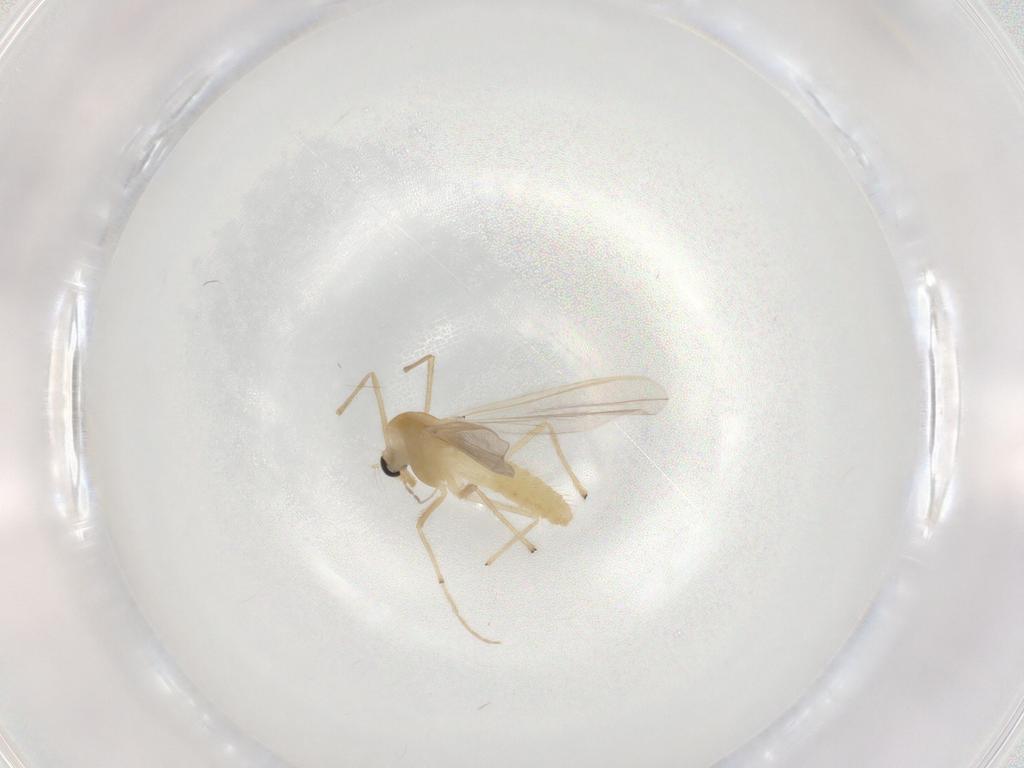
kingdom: Animalia
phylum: Arthropoda
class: Insecta
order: Diptera
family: Chironomidae
